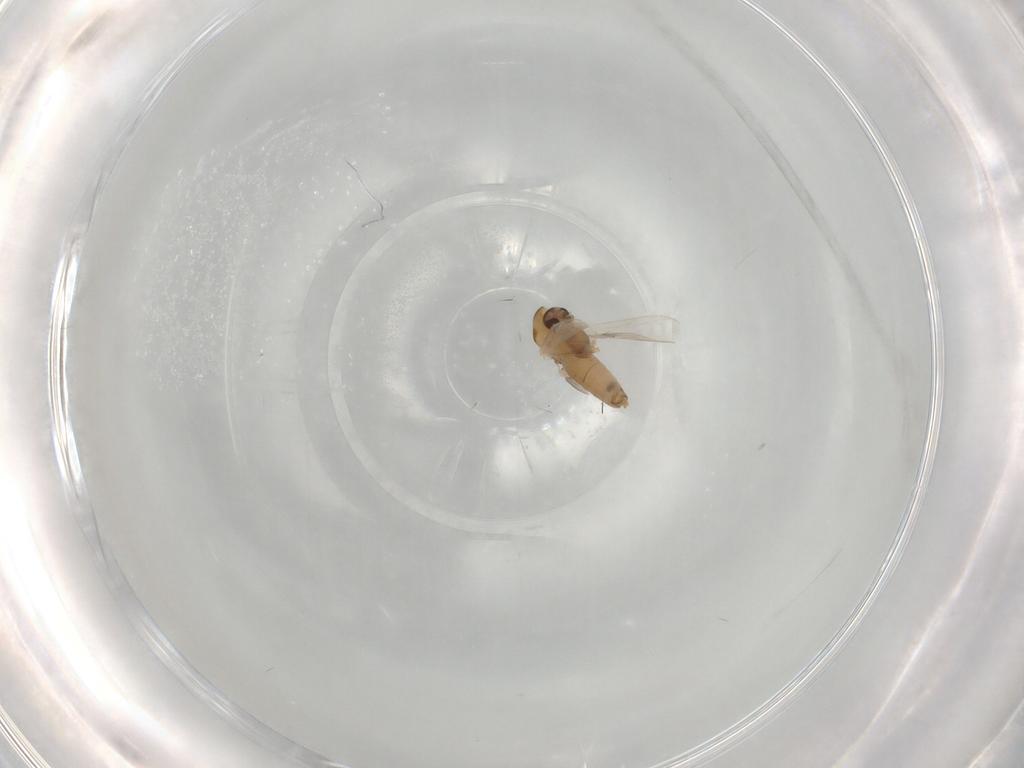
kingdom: Animalia
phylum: Arthropoda
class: Insecta
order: Diptera
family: Chironomidae
